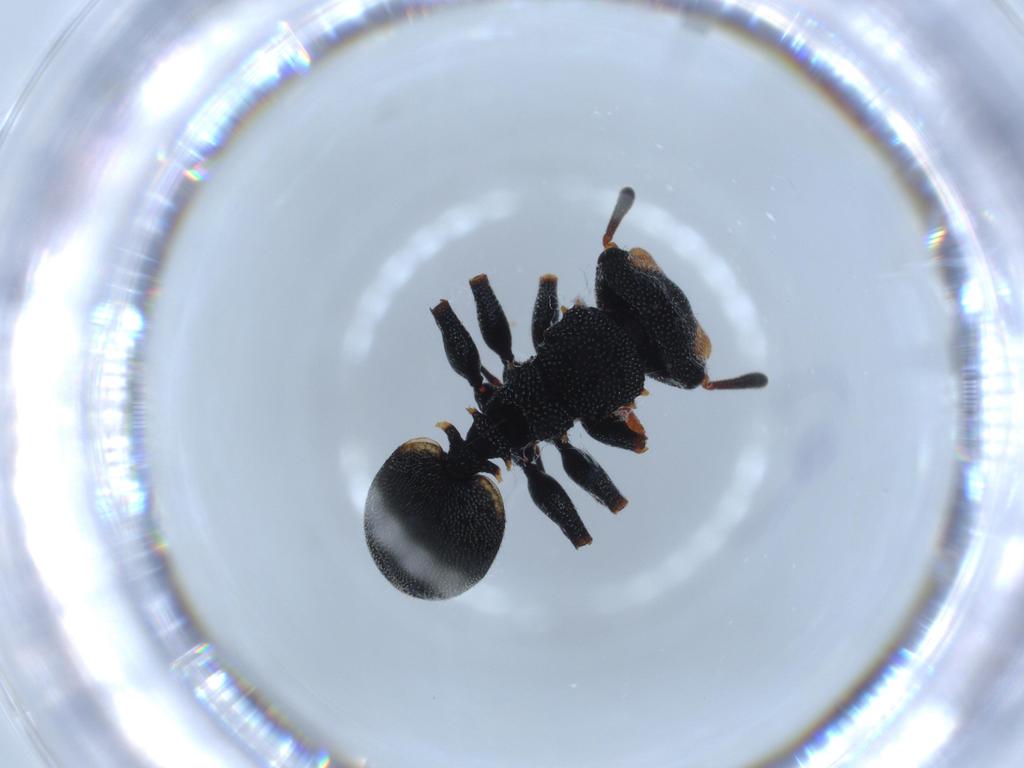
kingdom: Animalia
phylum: Arthropoda
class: Insecta
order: Hymenoptera
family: Formicidae
